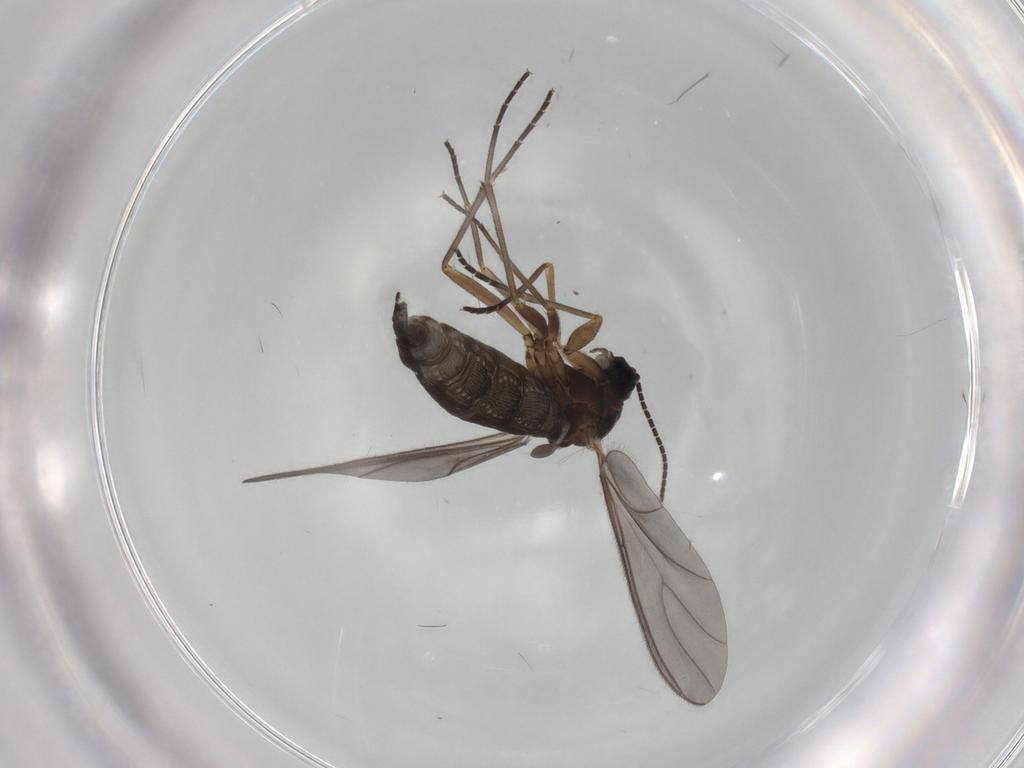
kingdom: Animalia
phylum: Arthropoda
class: Insecta
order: Diptera
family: Sciaridae
